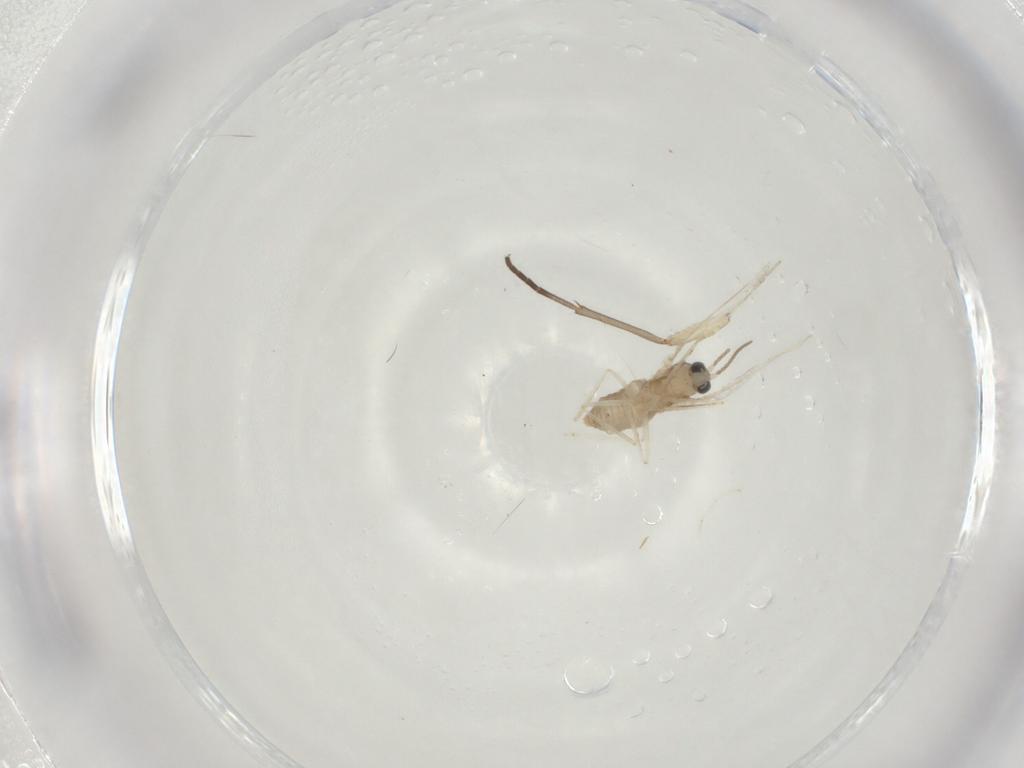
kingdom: Animalia
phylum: Arthropoda
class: Insecta
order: Diptera
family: Sciaridae
